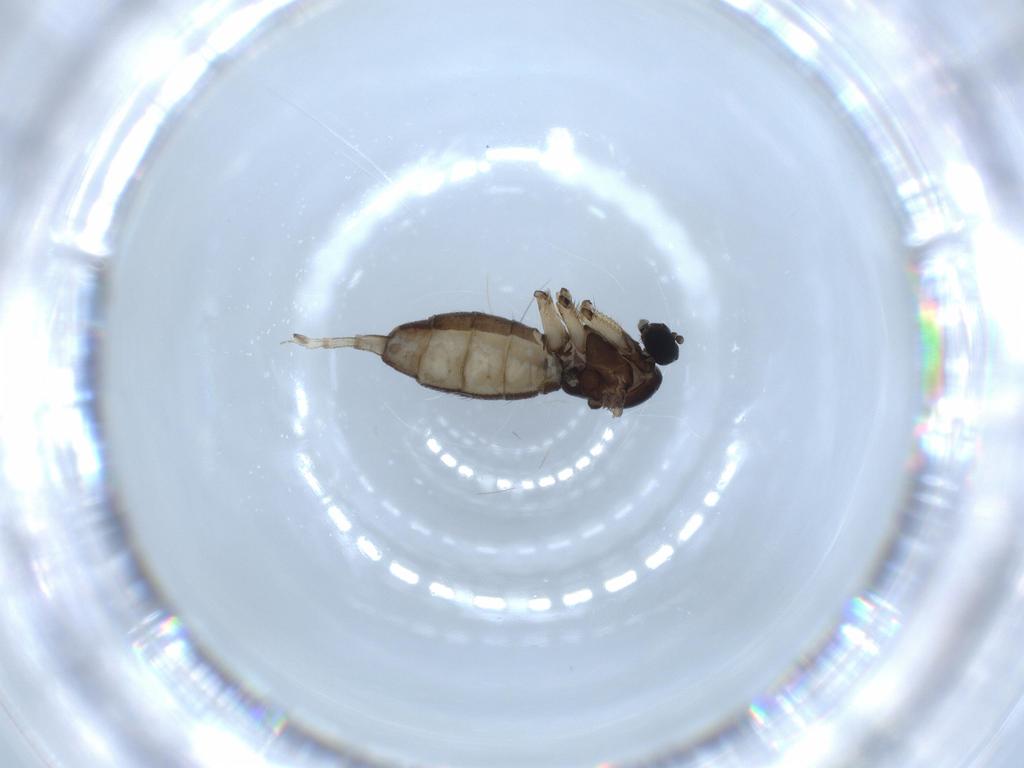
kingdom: Animalia
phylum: Arthropoda
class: Insecta
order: Diptera
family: Sciaridae
